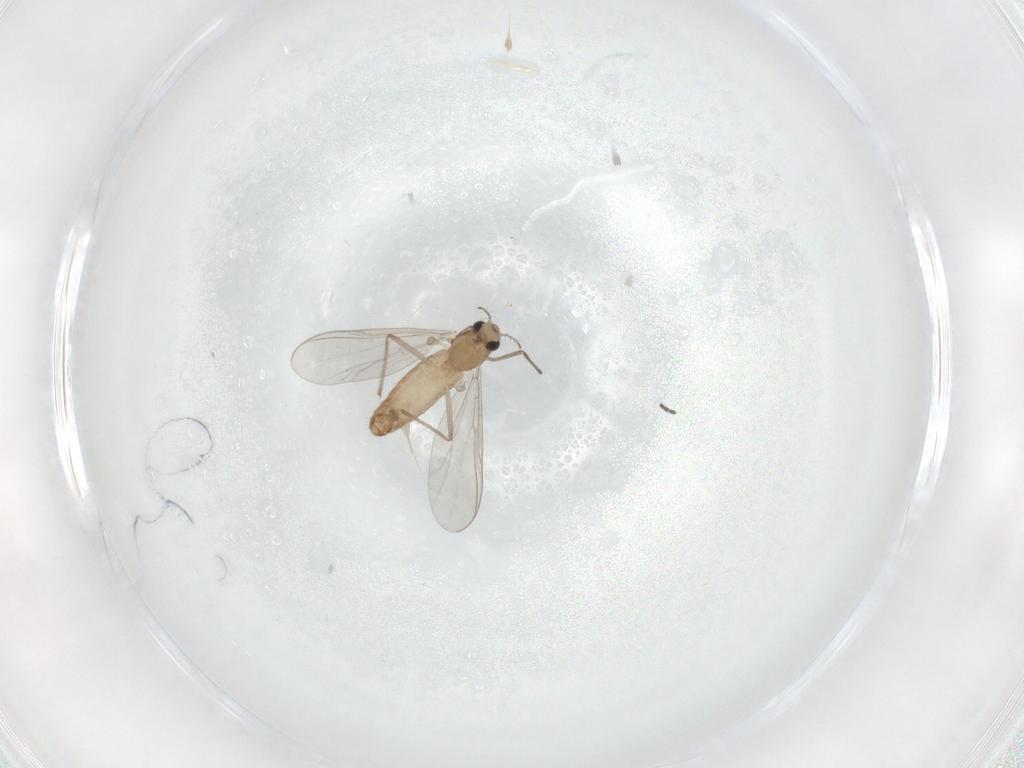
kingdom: Animalia
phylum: Arthropoda
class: Insecta
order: Diptera
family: Chironomidae
